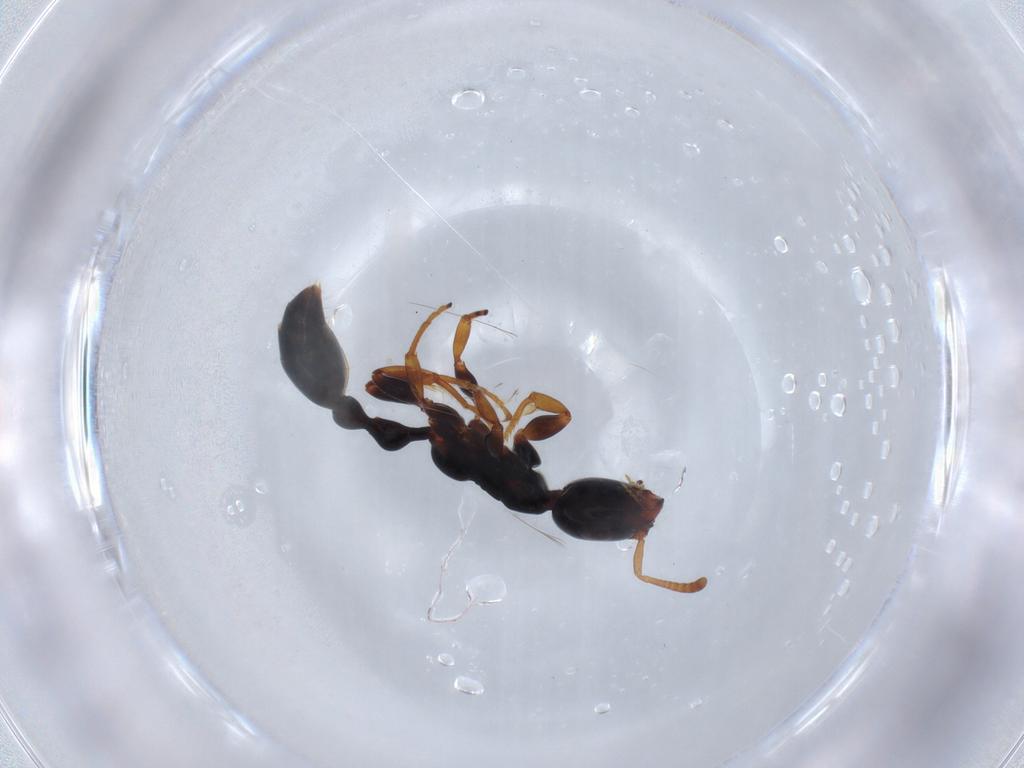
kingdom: Animalia
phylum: Arthropoda
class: Insecta
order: Hymenoptera
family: Formicidae
